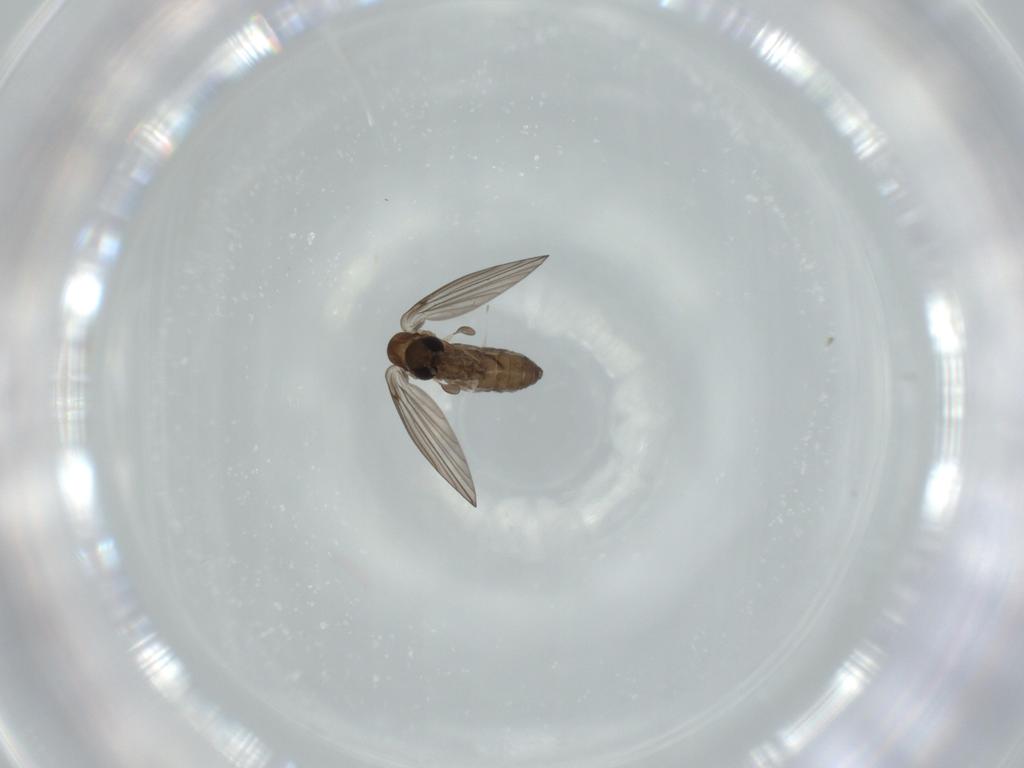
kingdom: Animalia
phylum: Arthropoda
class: Insecta
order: Diptera
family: Psychodidae
